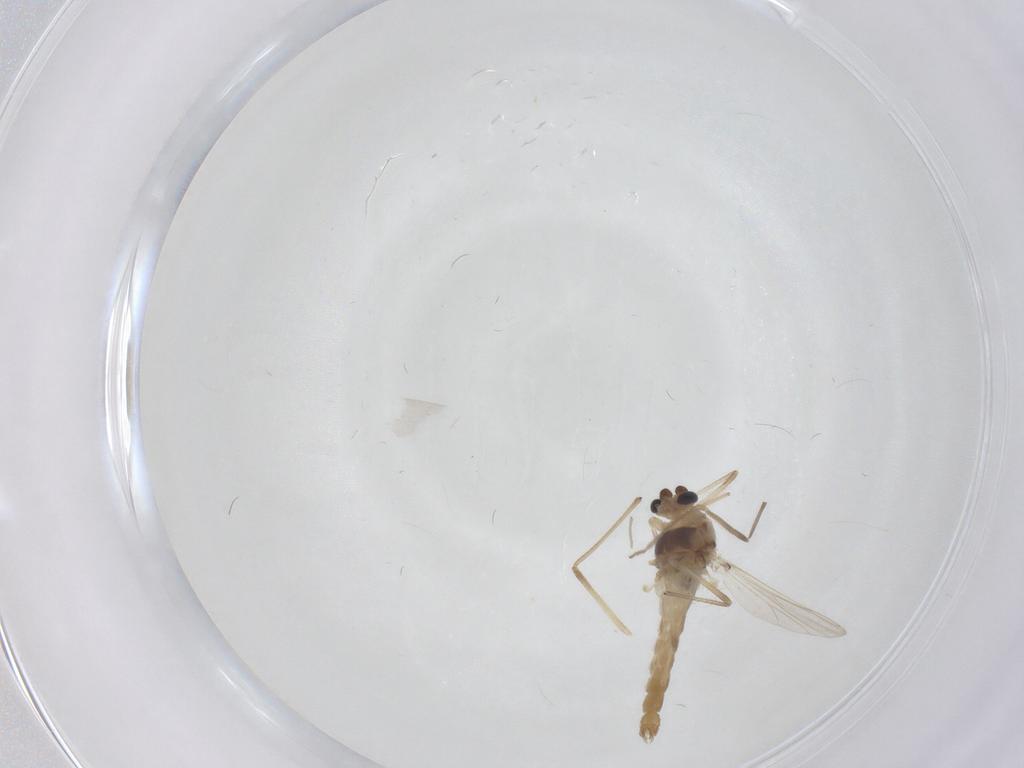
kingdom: Animalia
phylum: Arthropoda
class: Insecta
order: Diptera
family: Chironomidae
